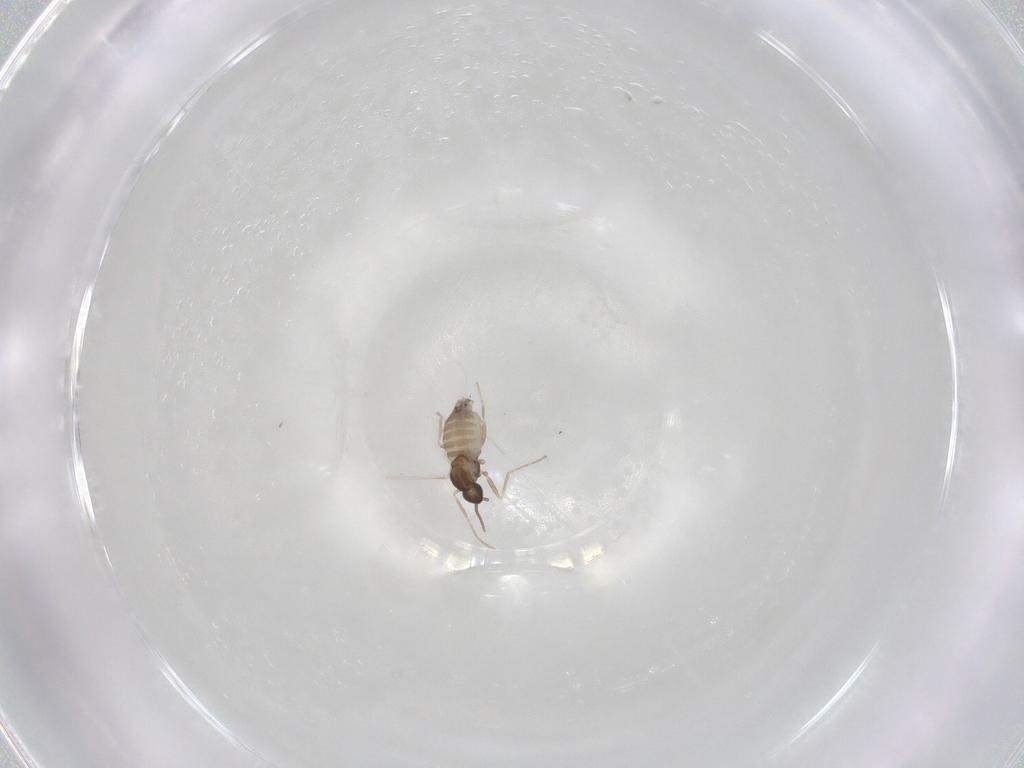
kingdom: Animalia
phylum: Arthropoda
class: Insecta
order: Diptera
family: Cecidomyiidae
